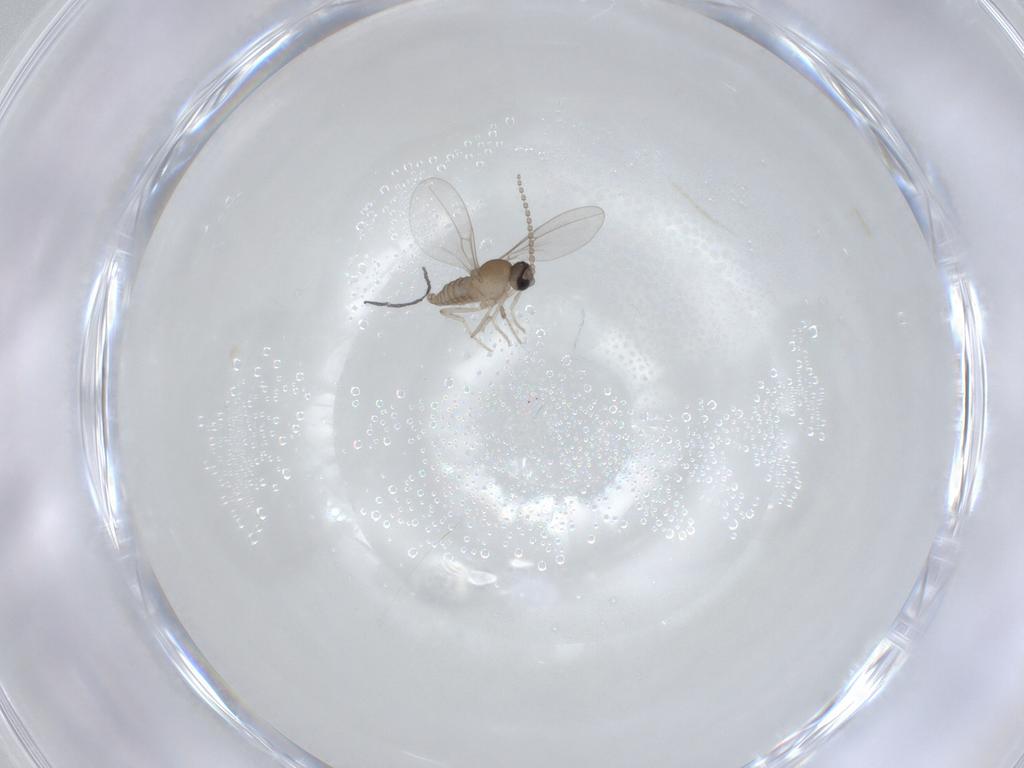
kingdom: Animalia
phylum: Arthropoda
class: Insecta
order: Diptera
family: Cecidomyiidae
